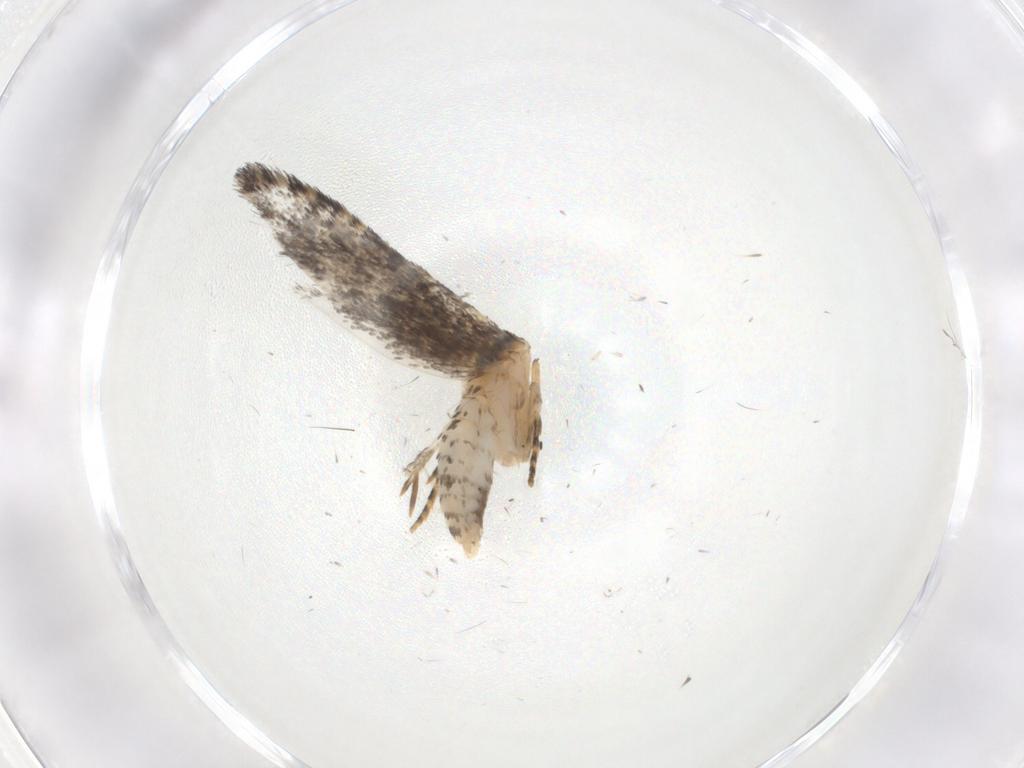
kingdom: Animalia
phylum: Arthropoda
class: Insecta
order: Lepidoptera
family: Tineidae
